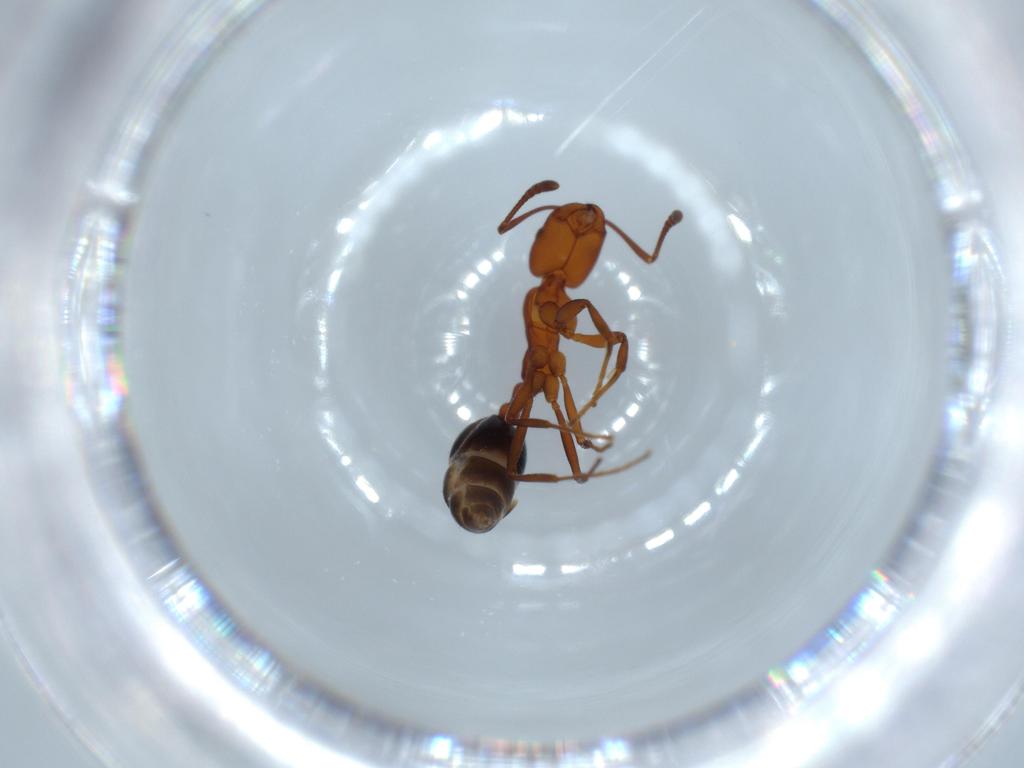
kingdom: Animalia
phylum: Arthropoda
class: Insecta
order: Hymenoptera
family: Formicidae
